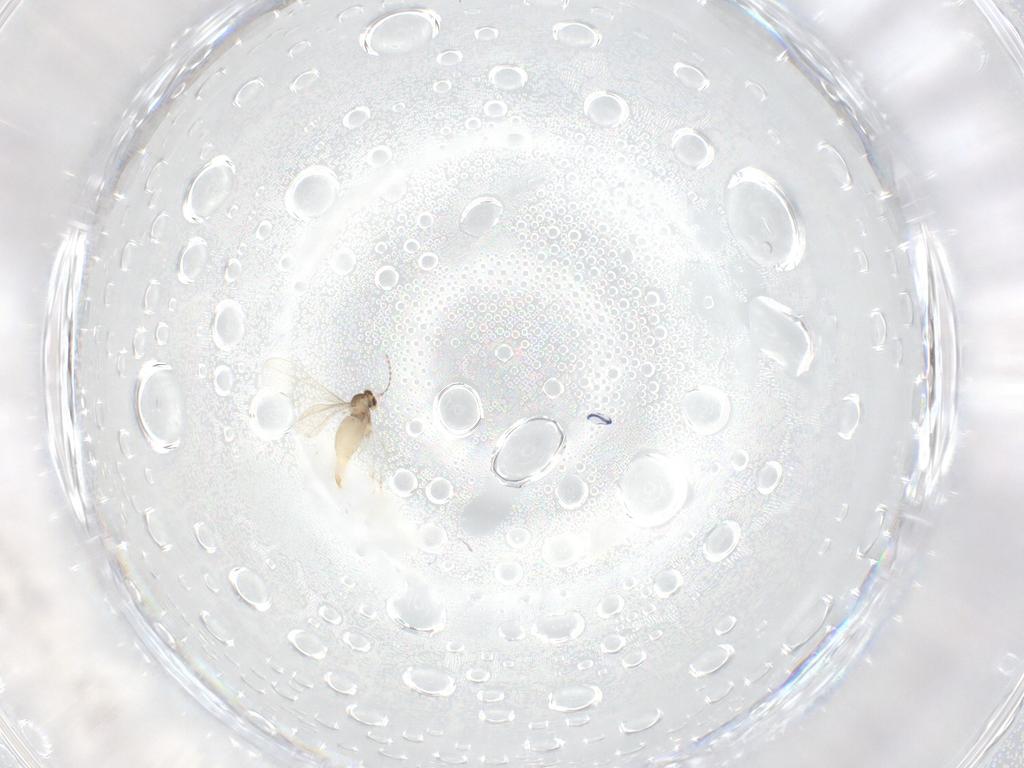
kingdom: Animalia
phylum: Arthropoda
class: Insecta
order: Diptera
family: Cecidomyiidae
